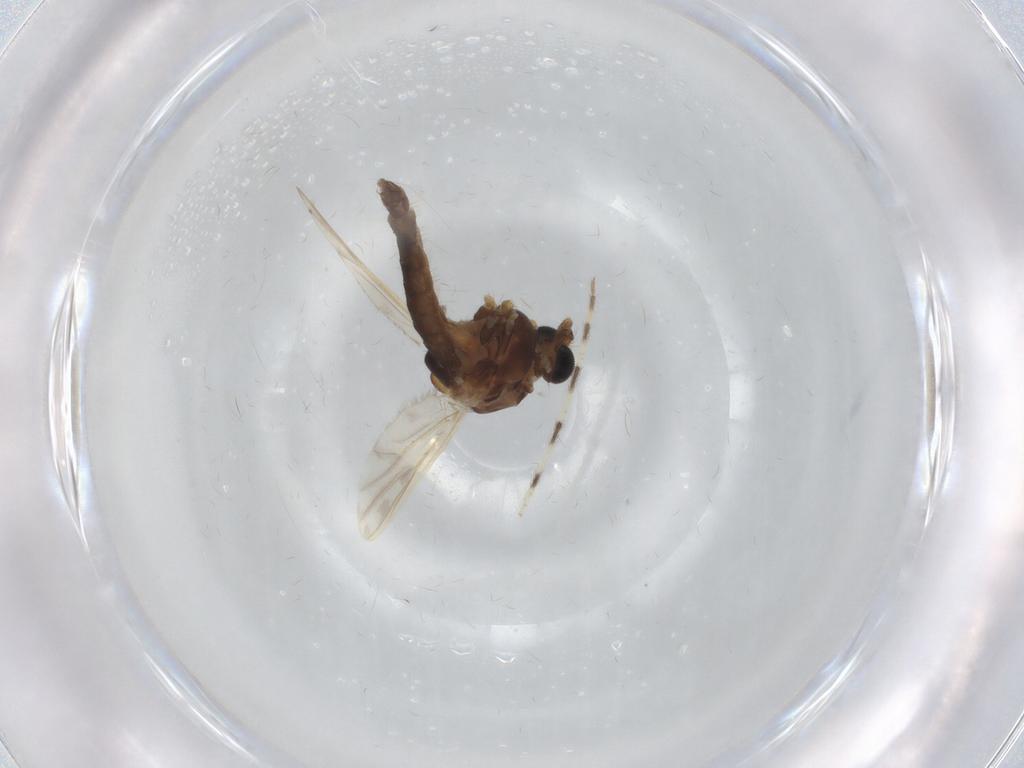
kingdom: Animalia
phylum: Arthropoda
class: Insecta
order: Diptera
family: Chironomidae
